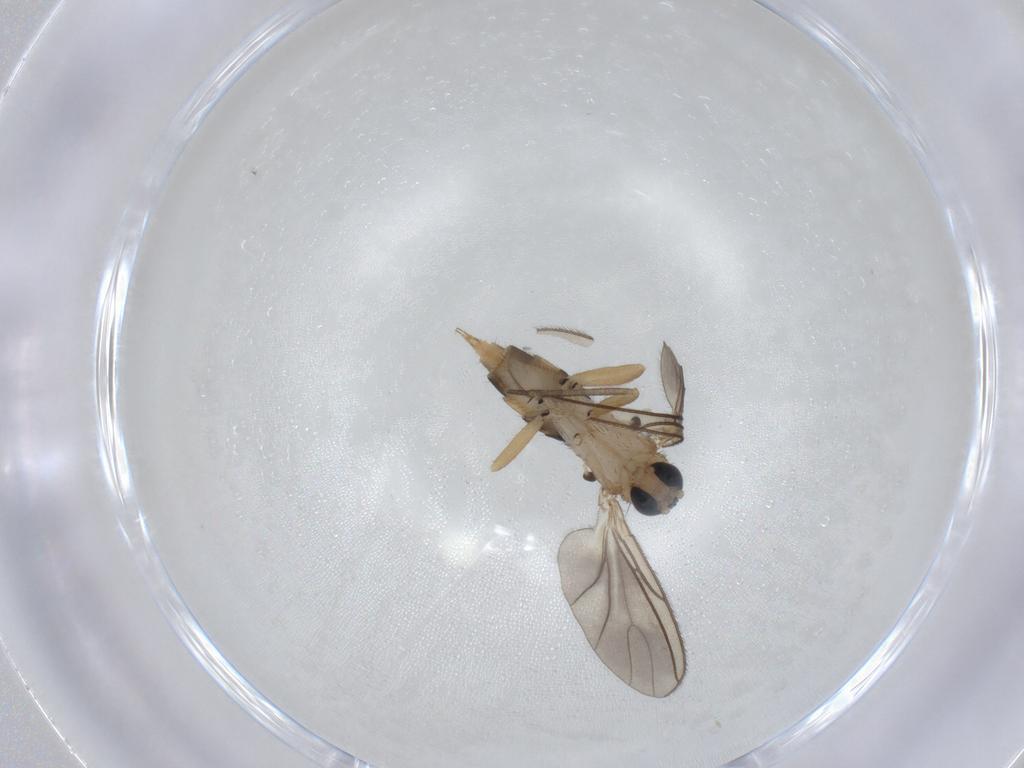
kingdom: Animalia
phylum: Arthropoda
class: Insecta
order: Diptera
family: Sciaridae
